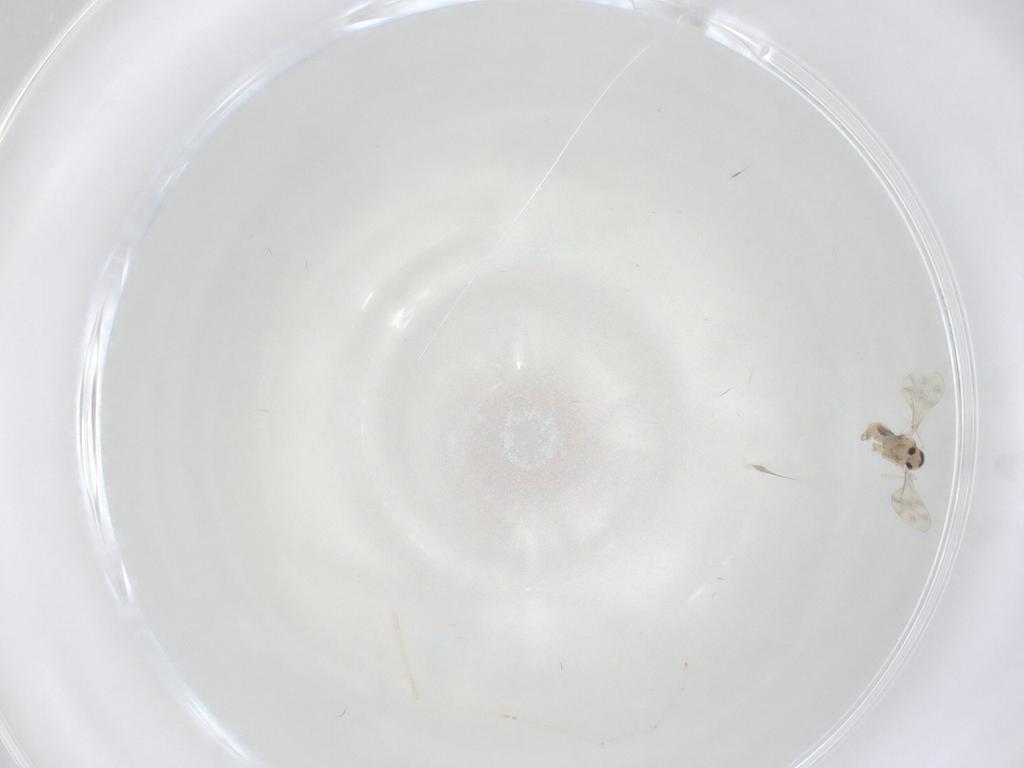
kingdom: Animalia
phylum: Arthropoda
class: Insecta
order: Diptera
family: Cecidomyiidae
